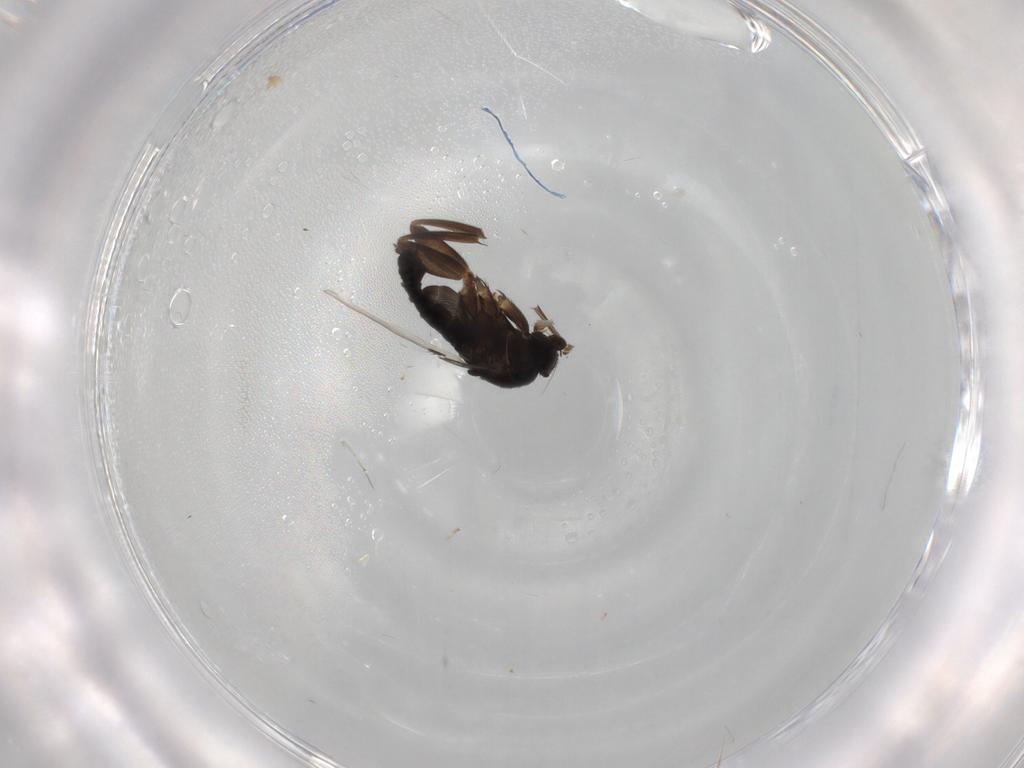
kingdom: Animalia
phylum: Arthropoda
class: Insecta
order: Diptera
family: Phoridae
